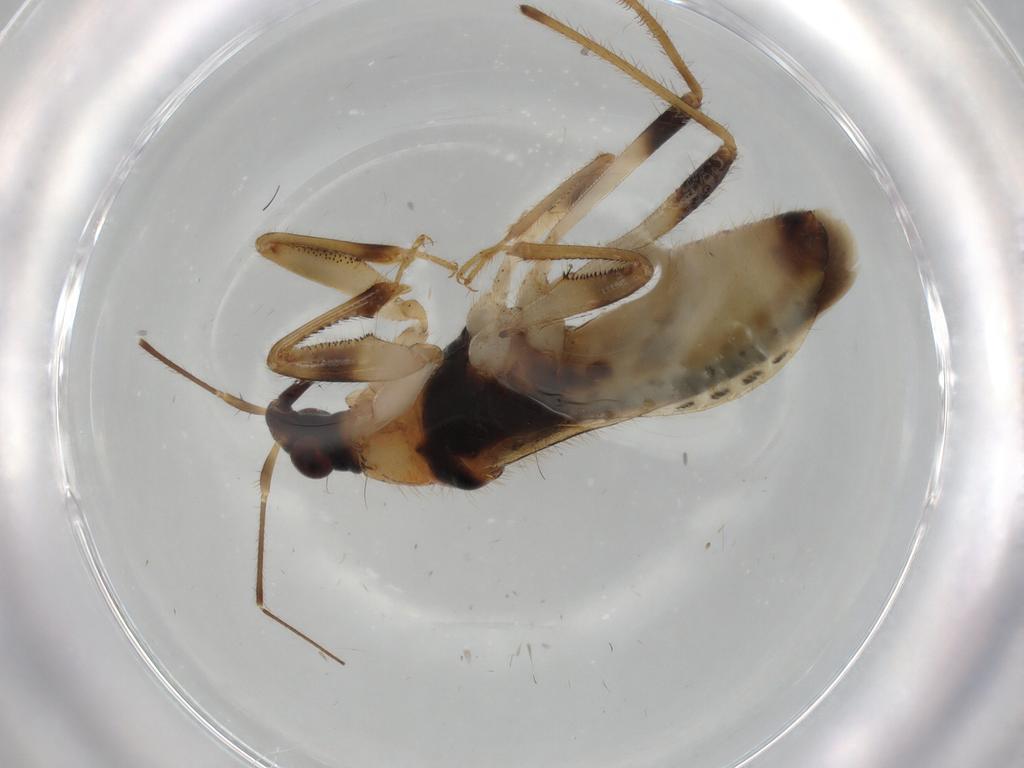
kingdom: Animalia
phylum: Arthropoda
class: Insecta
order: Hemiptera
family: Nabidae
